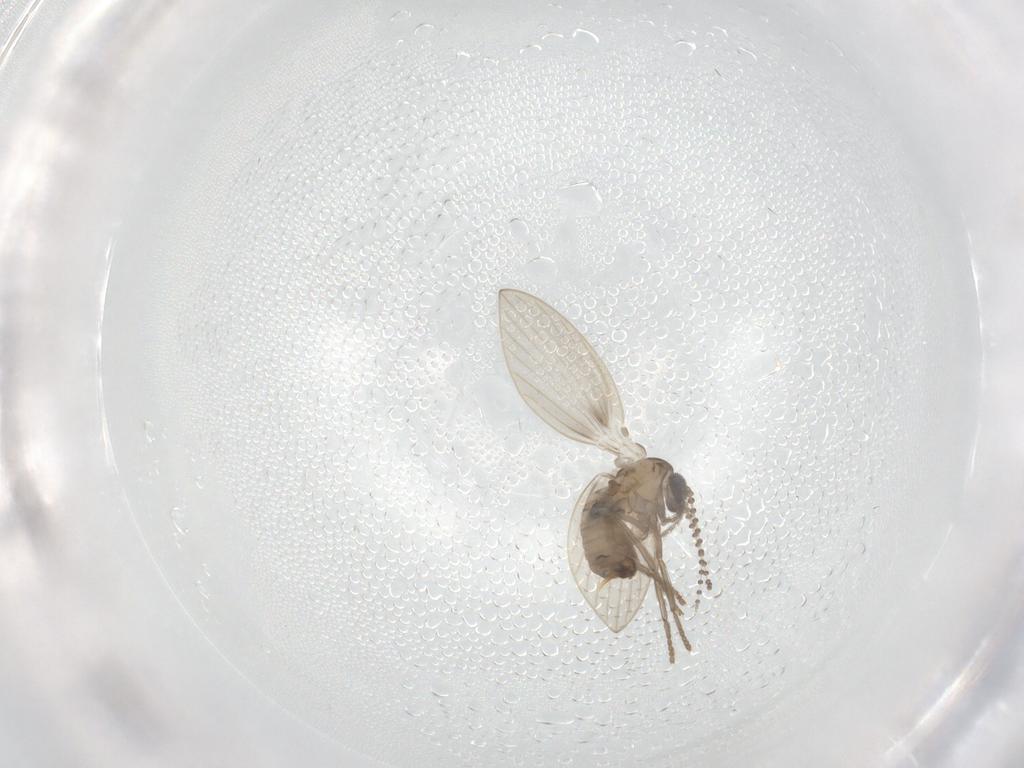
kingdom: Animalia
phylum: Arthropoda
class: Insecta
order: Diptera
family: Psychodidae
